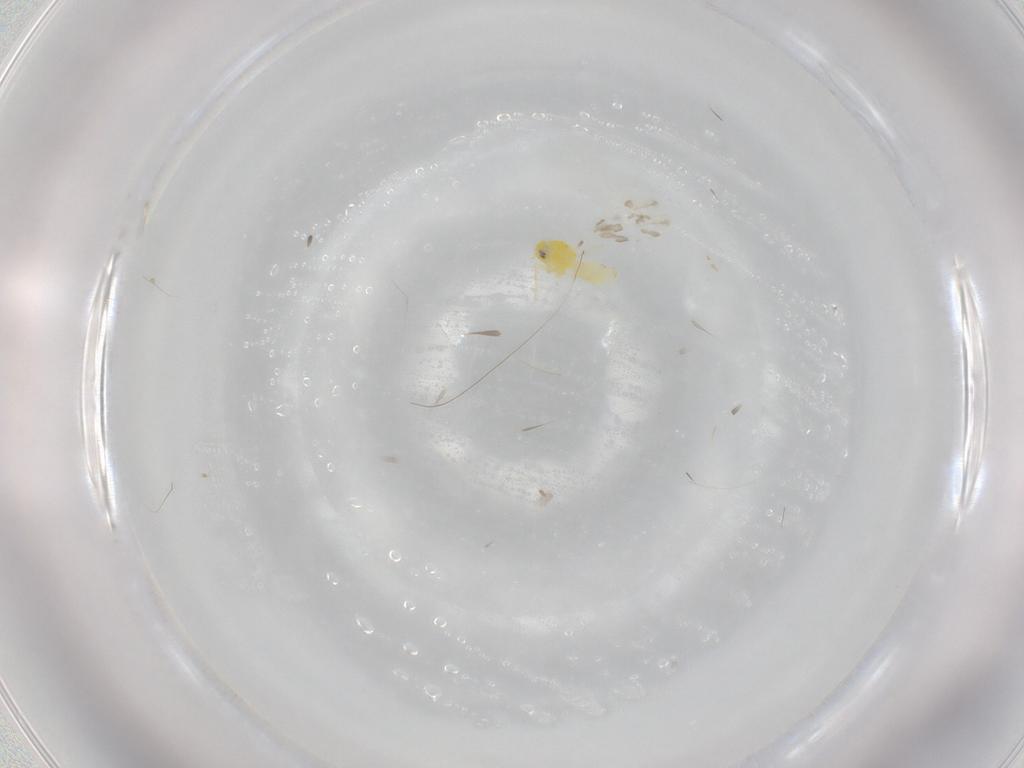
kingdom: Animalia
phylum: Arthropoda
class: Insecta
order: Hemiptera
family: Aleyrodidae
